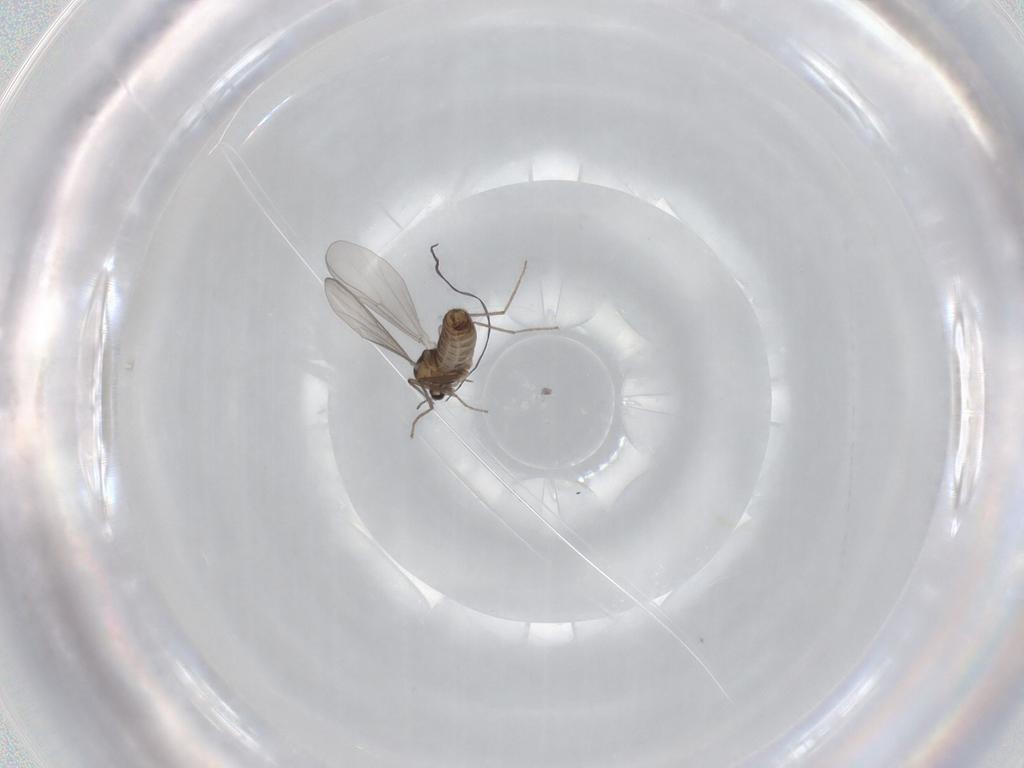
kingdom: Animalia
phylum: Arthropoda
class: Insecta
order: Diptera
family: Chironomidae
